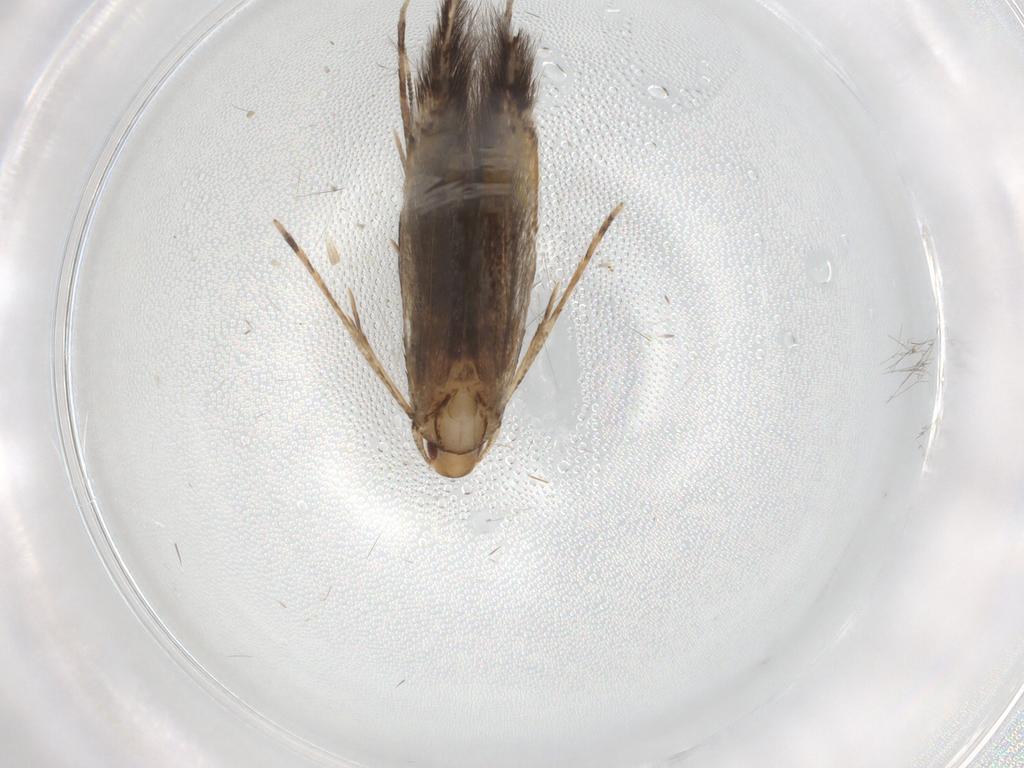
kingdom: Animalia
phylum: Arthropoda
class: Insecta
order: Lepidoptera
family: Cosmopterigidae
